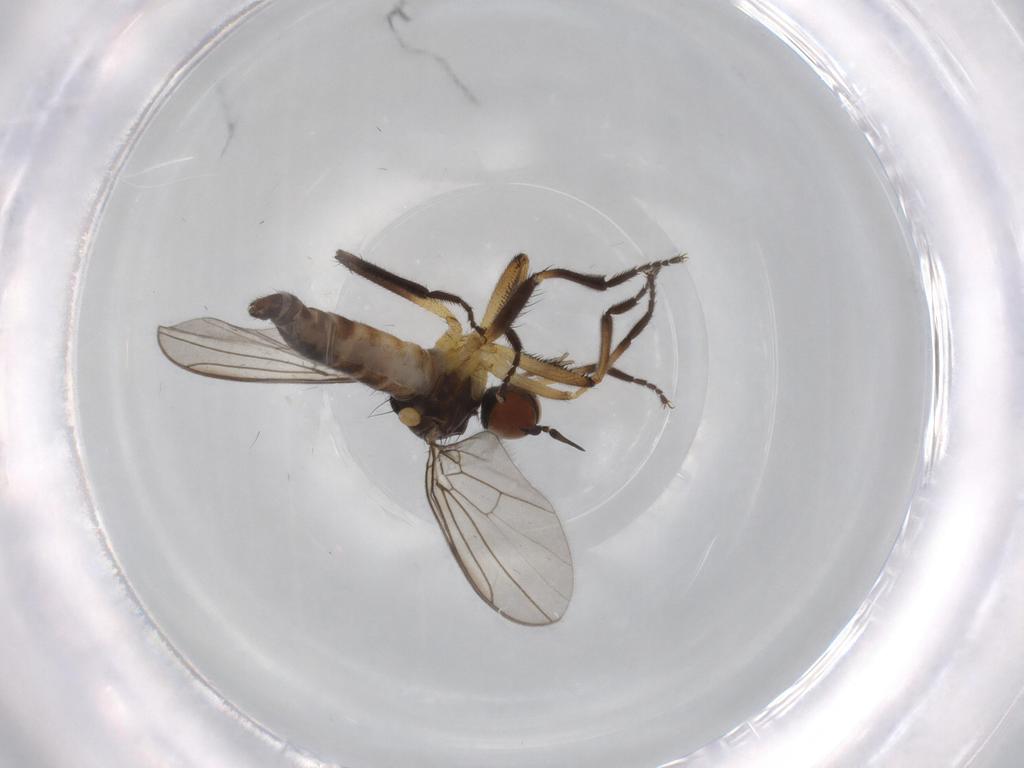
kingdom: Animalia
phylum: Arthropoda
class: Insecta
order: Diptera
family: Empididae
